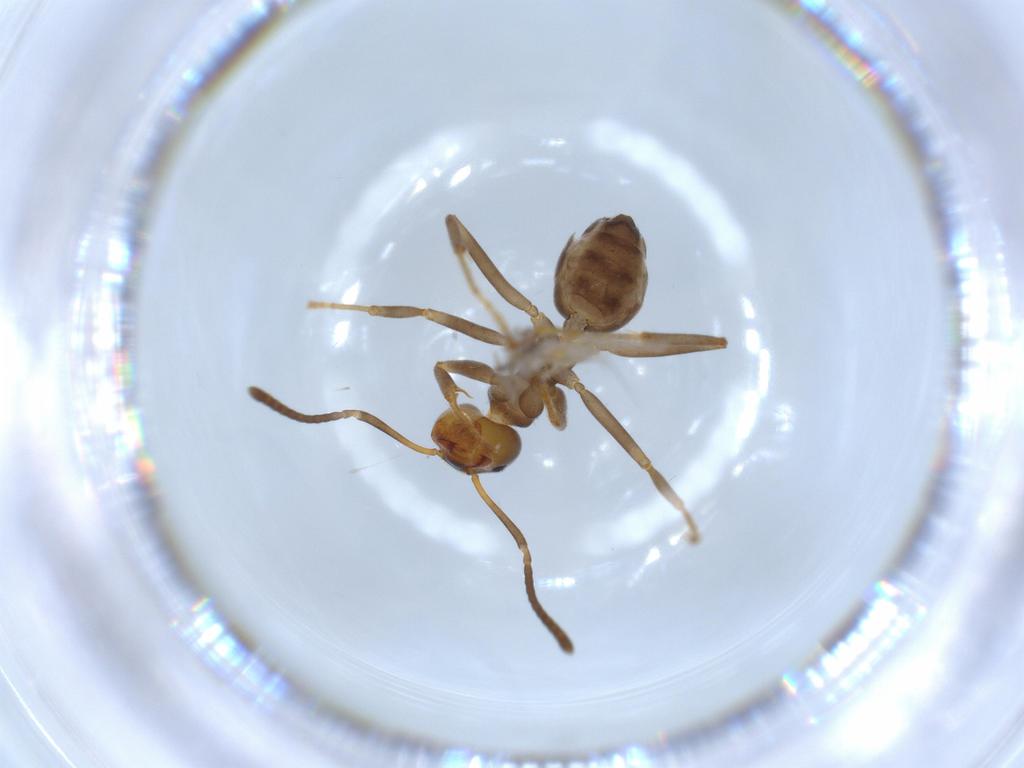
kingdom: Animalia
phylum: Arthropoda
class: Insecta
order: Hymenoptera
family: Formicidae
